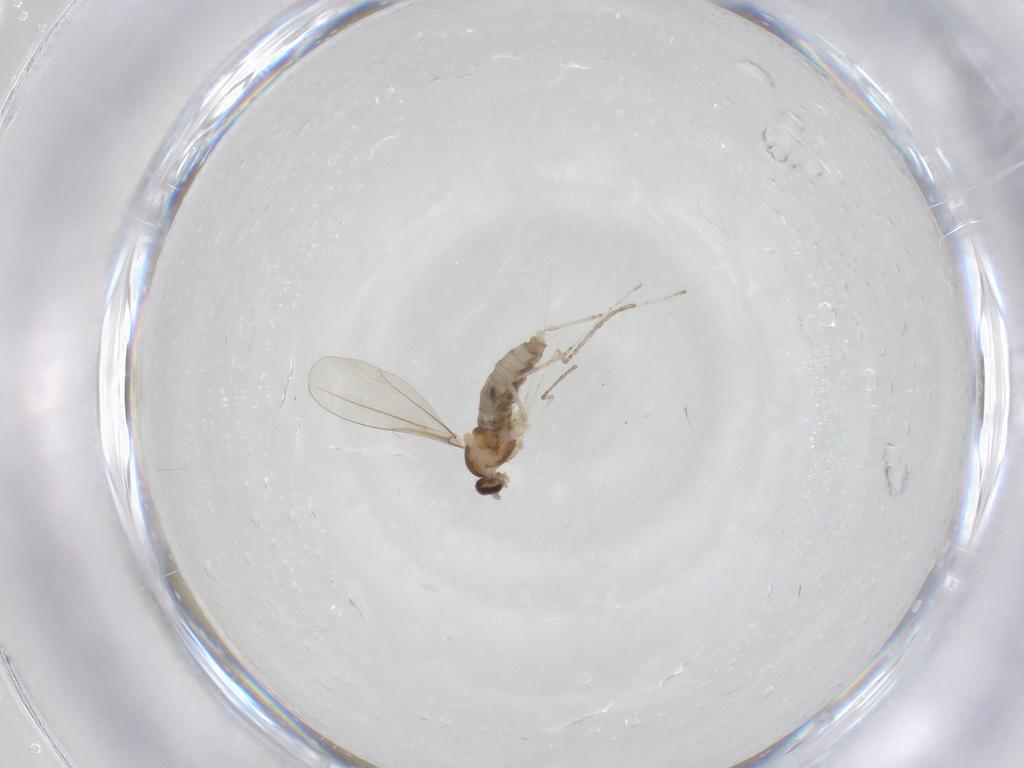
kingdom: Animalia
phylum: Arthropoda
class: Insecta
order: Diptera
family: Cecidomyiidae
